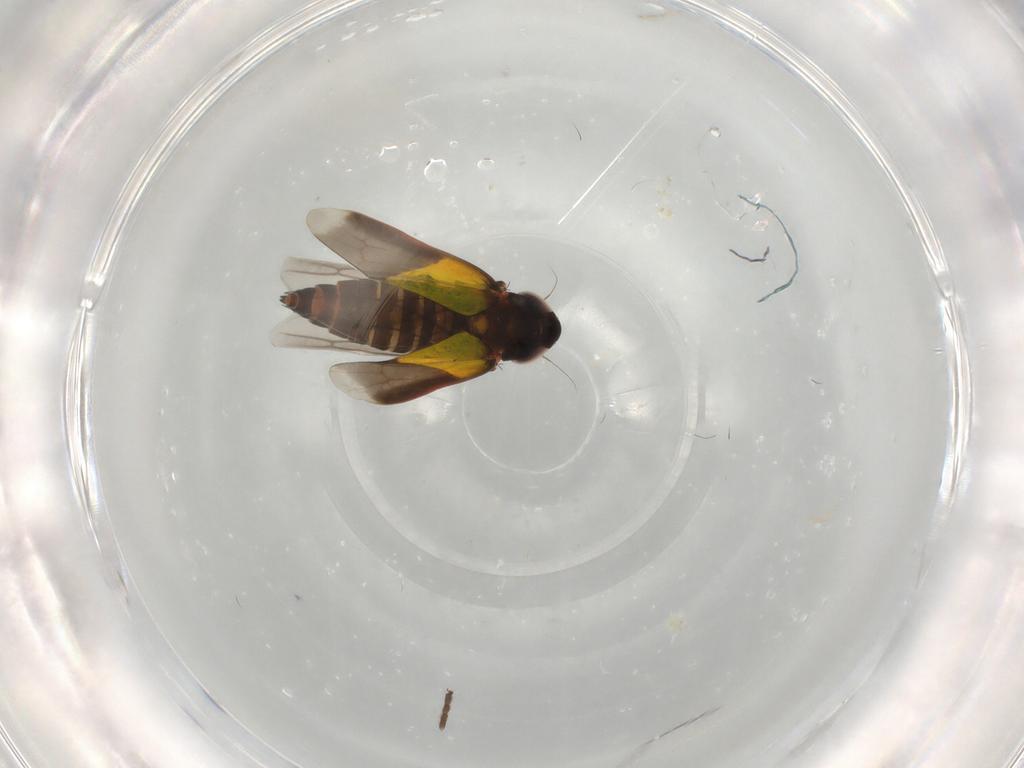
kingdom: Animalia
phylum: Arthropoda
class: Insecta
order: Hemiptera
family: Cicadellidae
